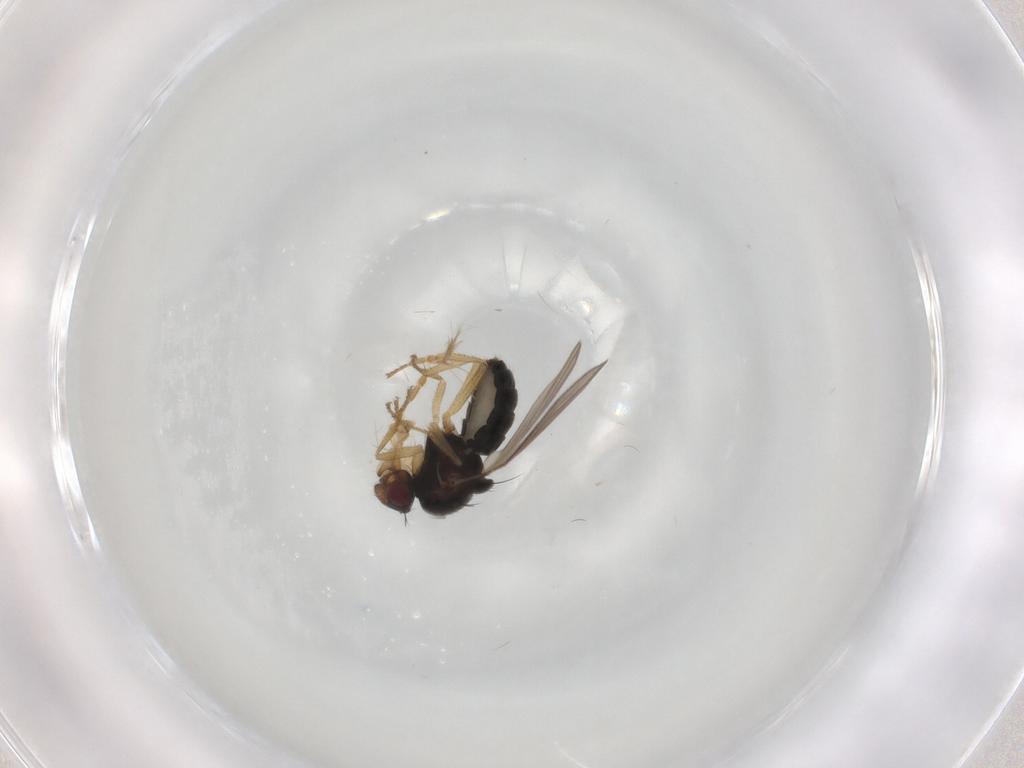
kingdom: Animalia
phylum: Arthropoda
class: Insecta
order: Diptera
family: Sphaeroceridae
